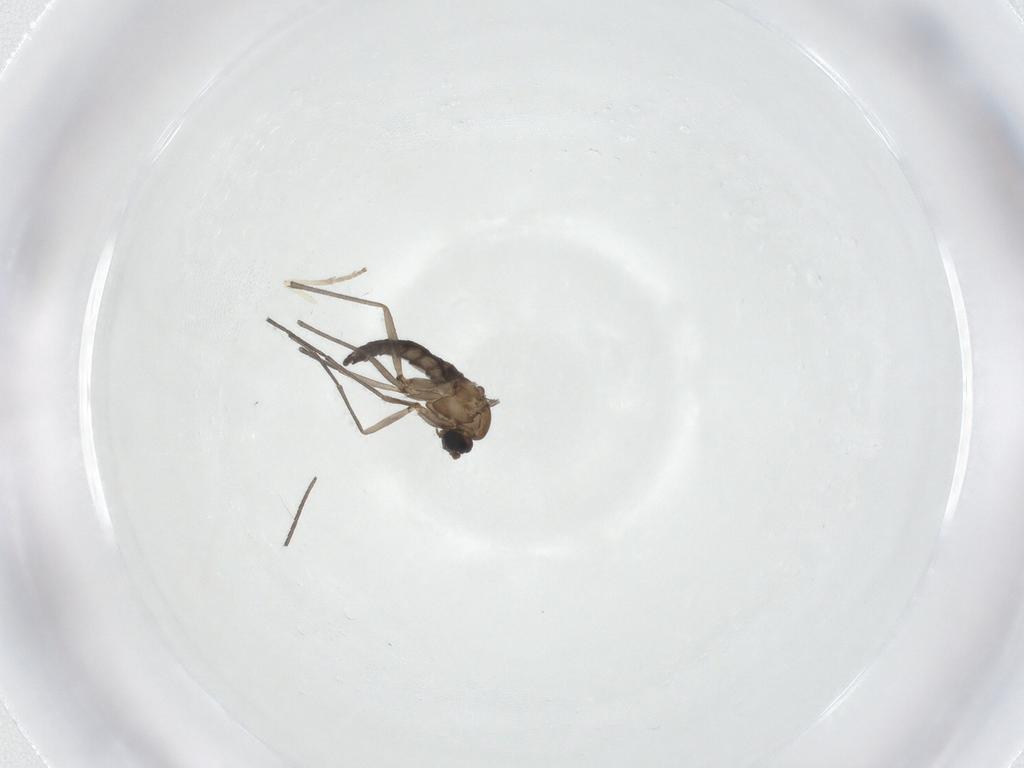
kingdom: Animalia
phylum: Arthropoda
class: Insecta
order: Diptera
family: Sciaridae
